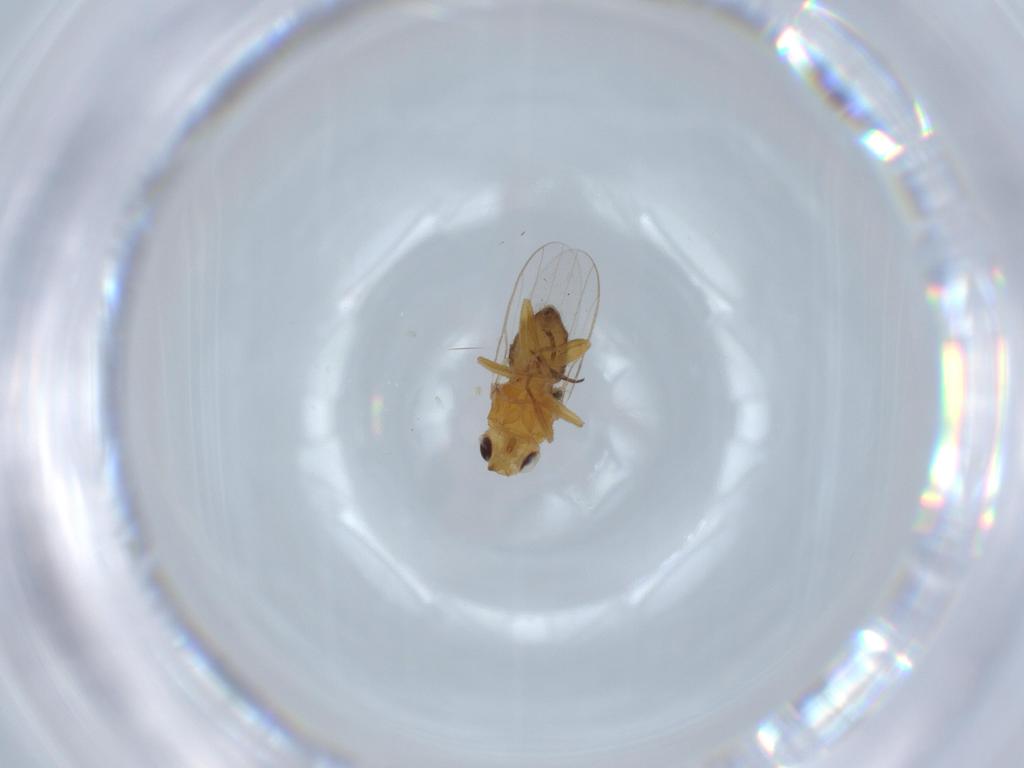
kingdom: Animalia
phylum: Arthropoda
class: Insecta
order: Diptera
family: Chloropidae
